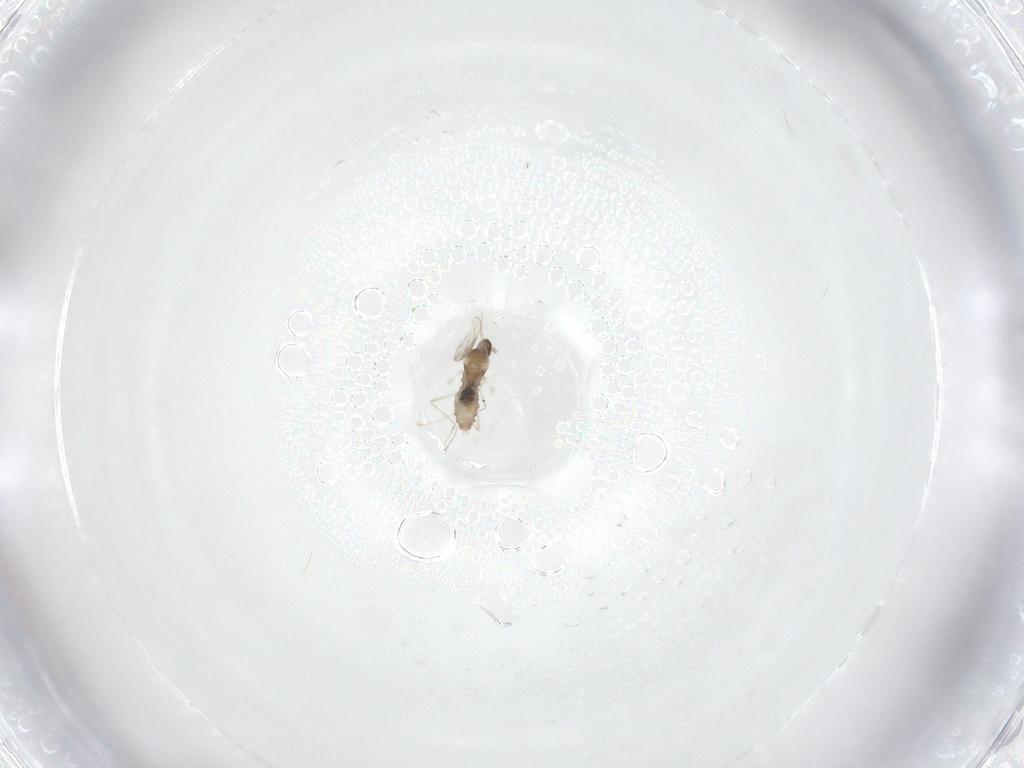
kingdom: Animalia
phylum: Arthropoda
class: Insecta
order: Diptera
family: Cecidomyiidae
